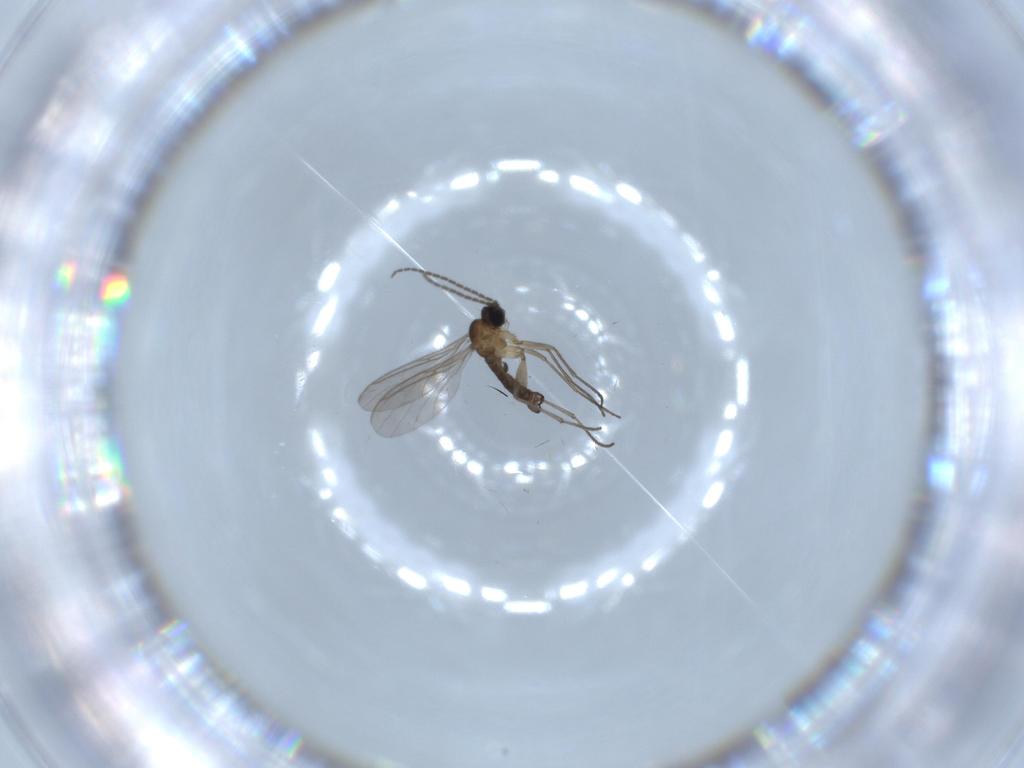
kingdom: Animalia
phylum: Arthropoda
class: Insecta
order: Diptera
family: Sciaridae
